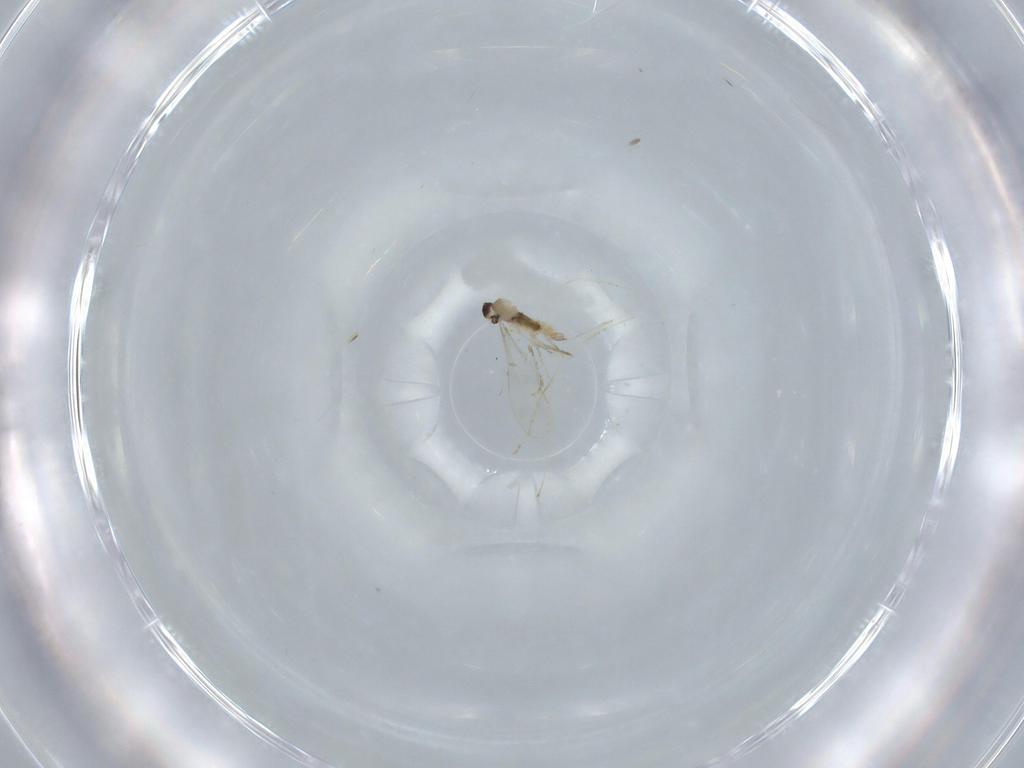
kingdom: Animalia
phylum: Arthropoda
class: Insecta
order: Diptera
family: Cecidomyiidae
